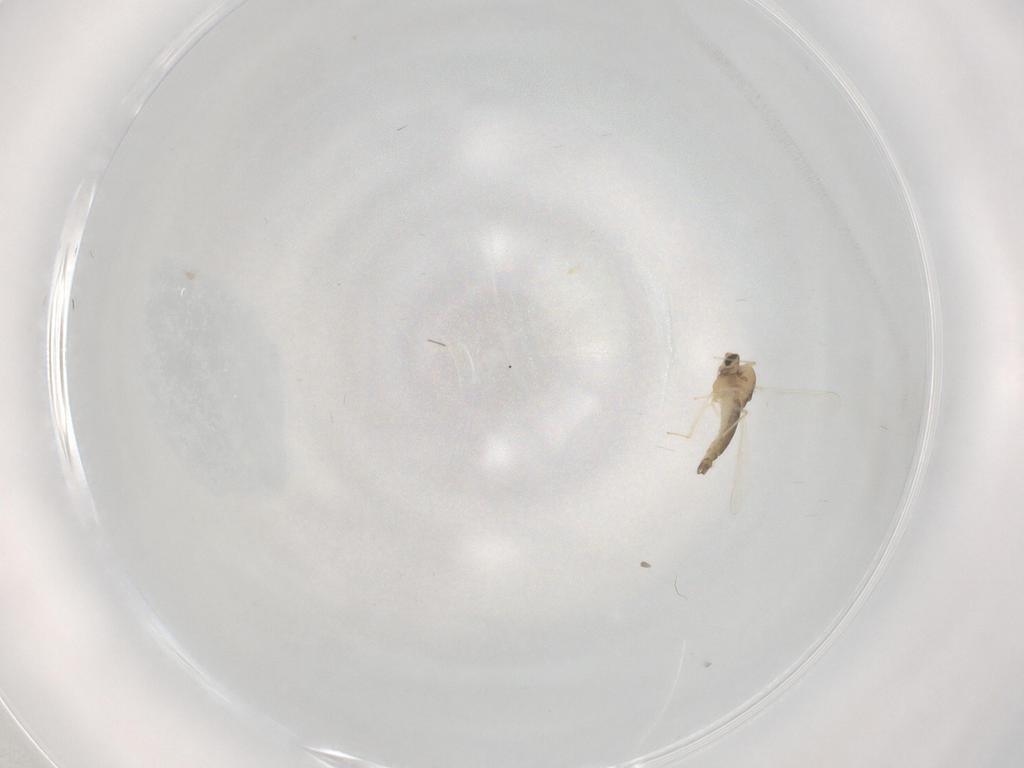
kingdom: Animalia
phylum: Arthropoda
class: Insecta
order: Diptera
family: Chironomidae
